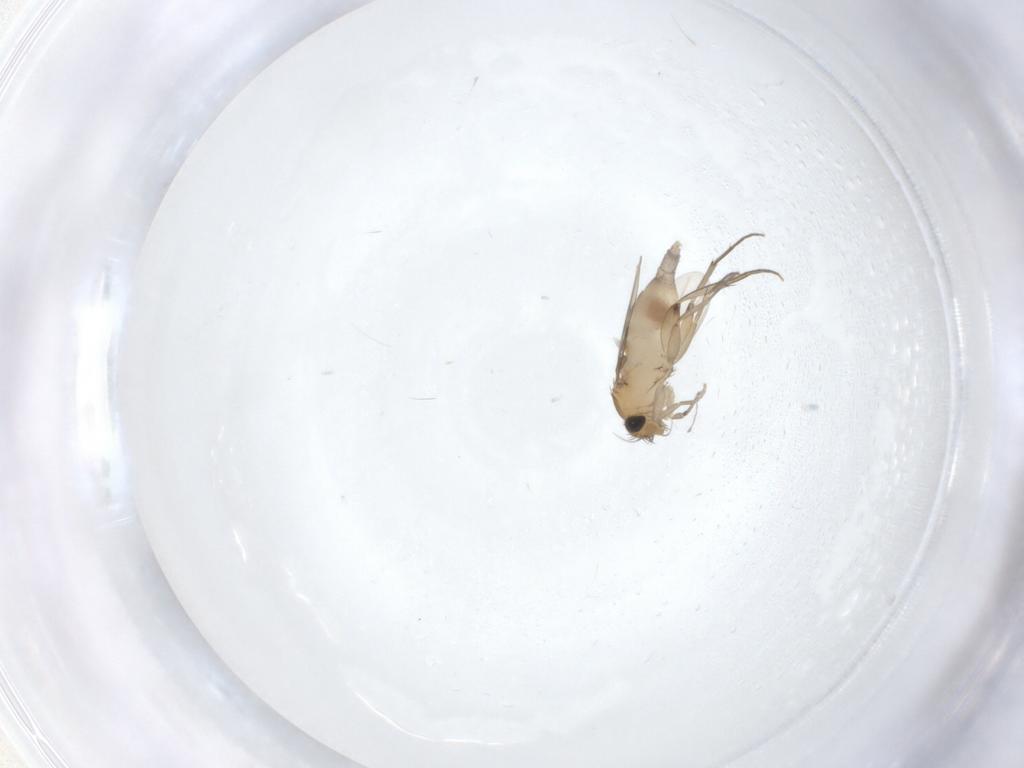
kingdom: Animalia
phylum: Arthropoda
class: Insecta
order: Diptera
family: Phoridae
